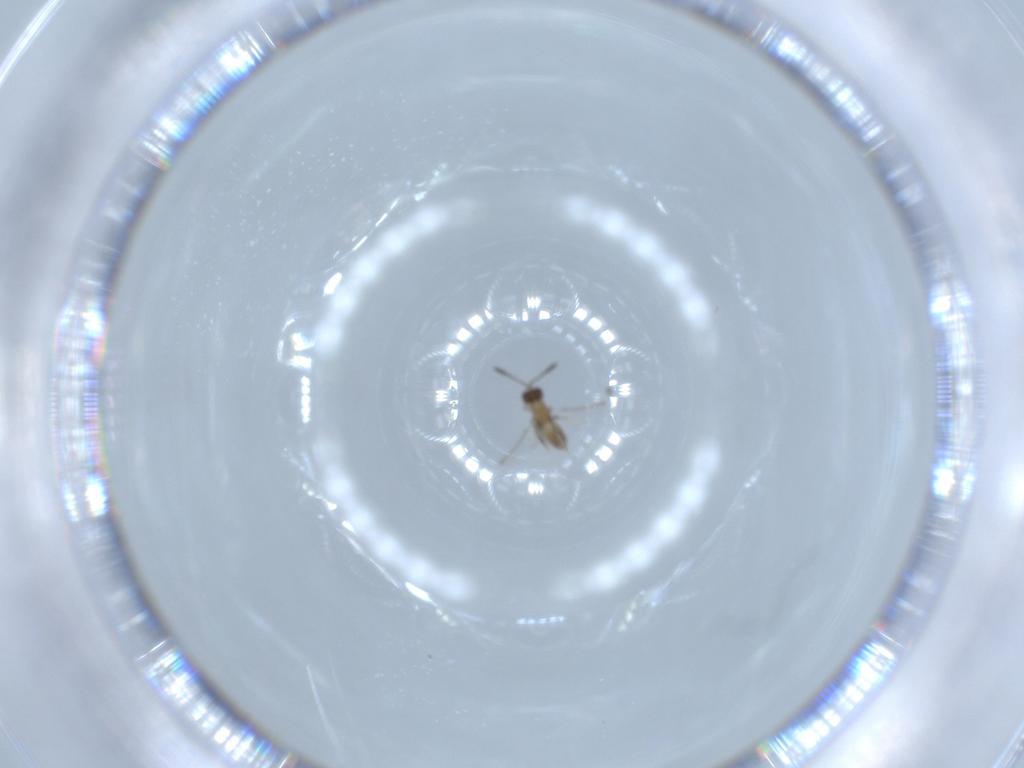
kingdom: Animalia
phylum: Arthropoda
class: Insecta
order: Hymenoptera
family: Mymaridae
